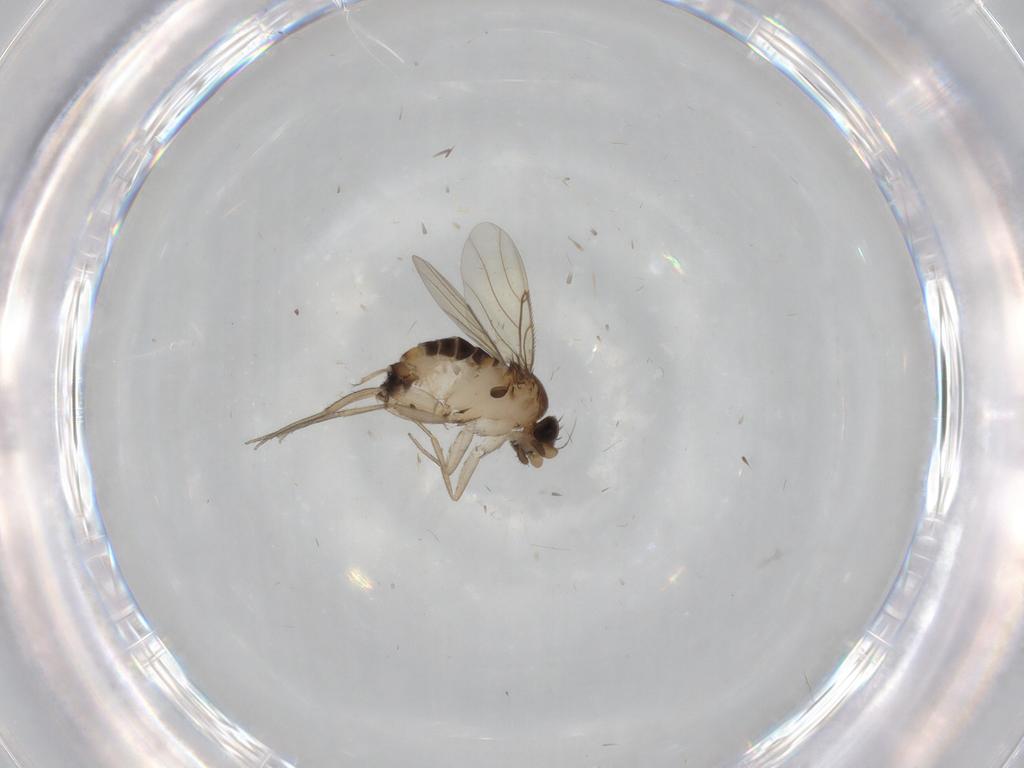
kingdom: Animalia
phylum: Arthropoda
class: Insecta
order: Diptera
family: Phoridae
